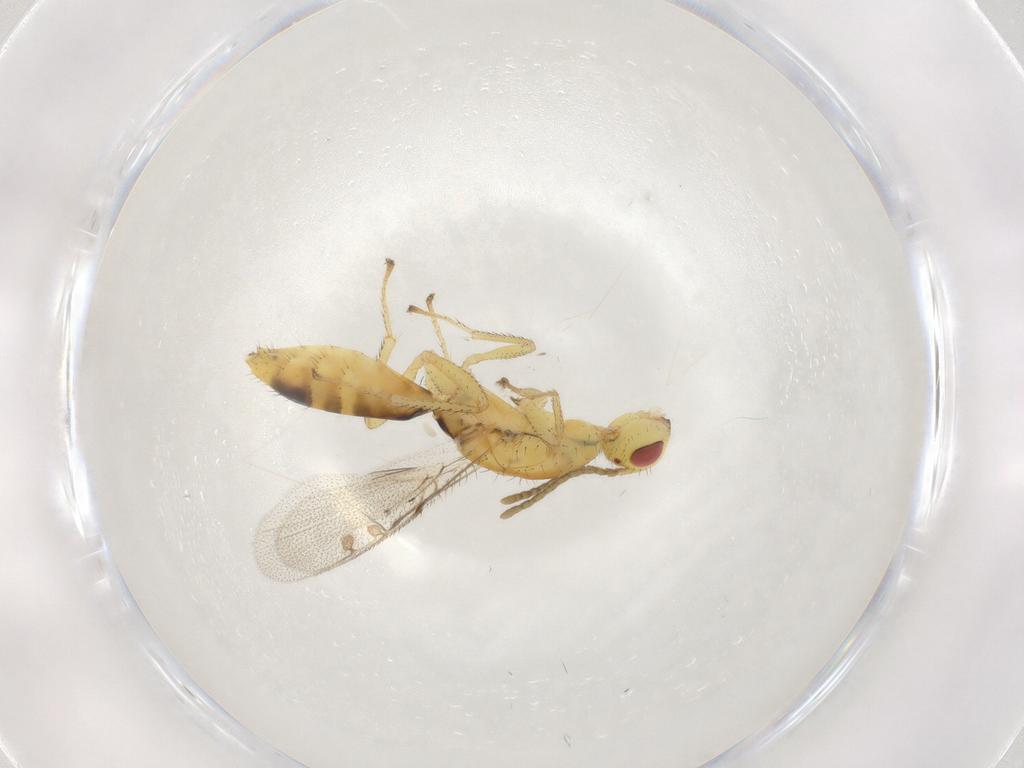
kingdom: Animalia
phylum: Arthropoda
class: Insecta
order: Hymenoptera
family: Megastigmidae
